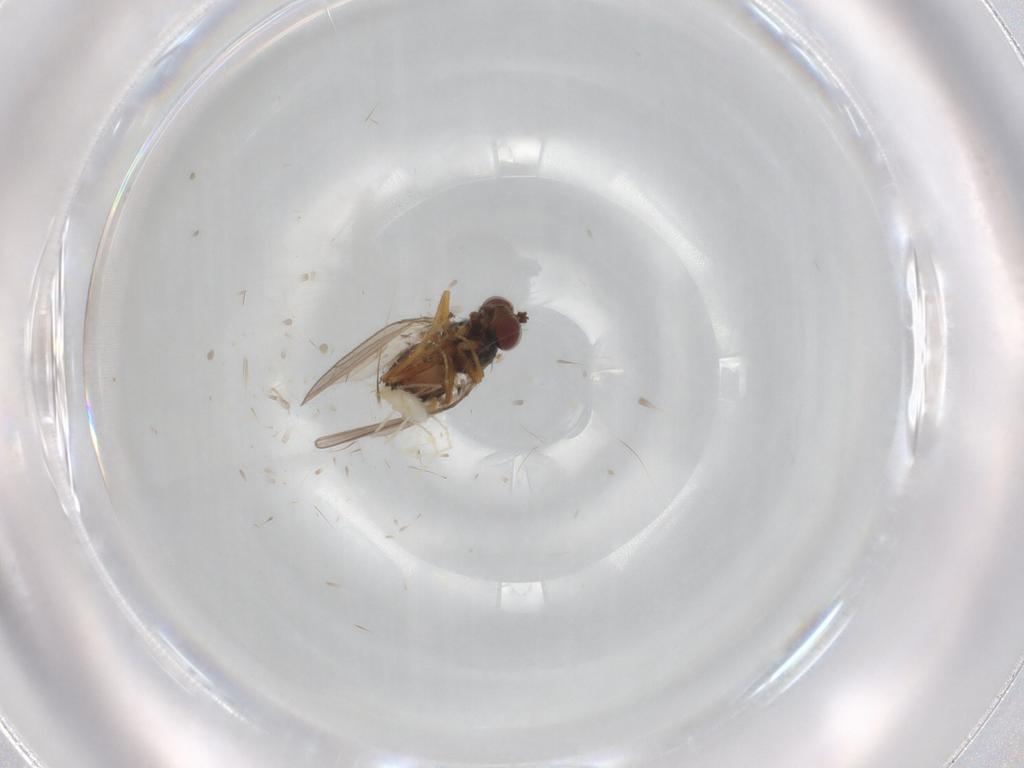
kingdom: Animalia
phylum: Arthropoda
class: Insecta
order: Diptera
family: Ephydridae
